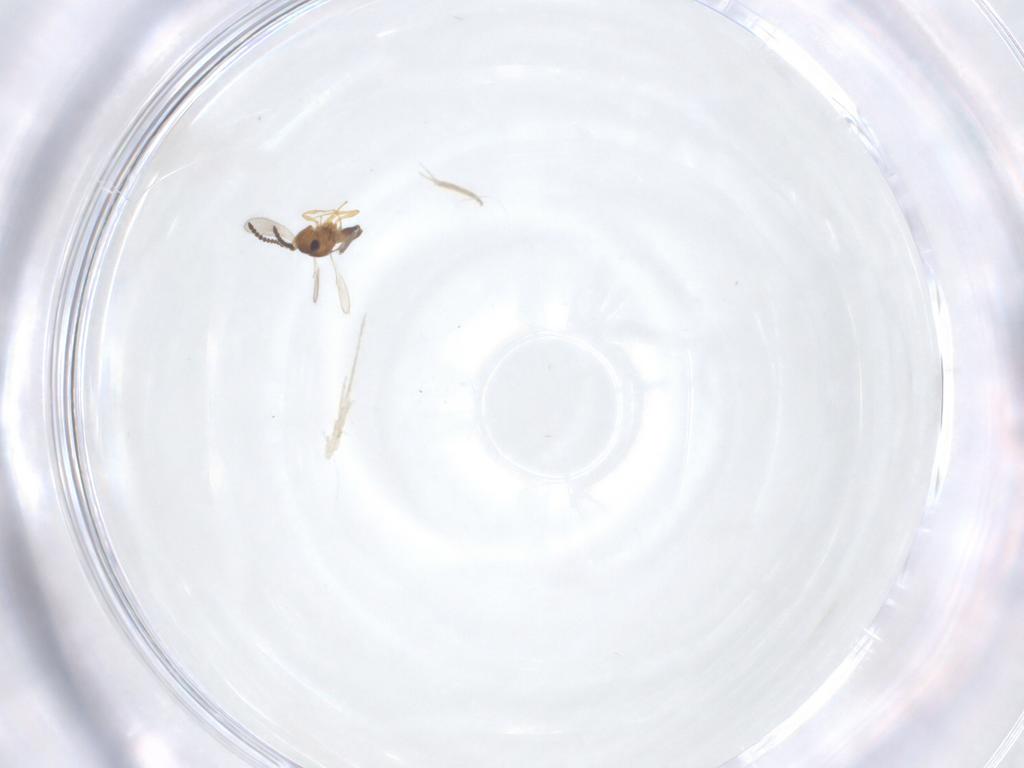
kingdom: Animalia
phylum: Arthropoda
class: Insecta
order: Hymenoptera
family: Scelionidae
